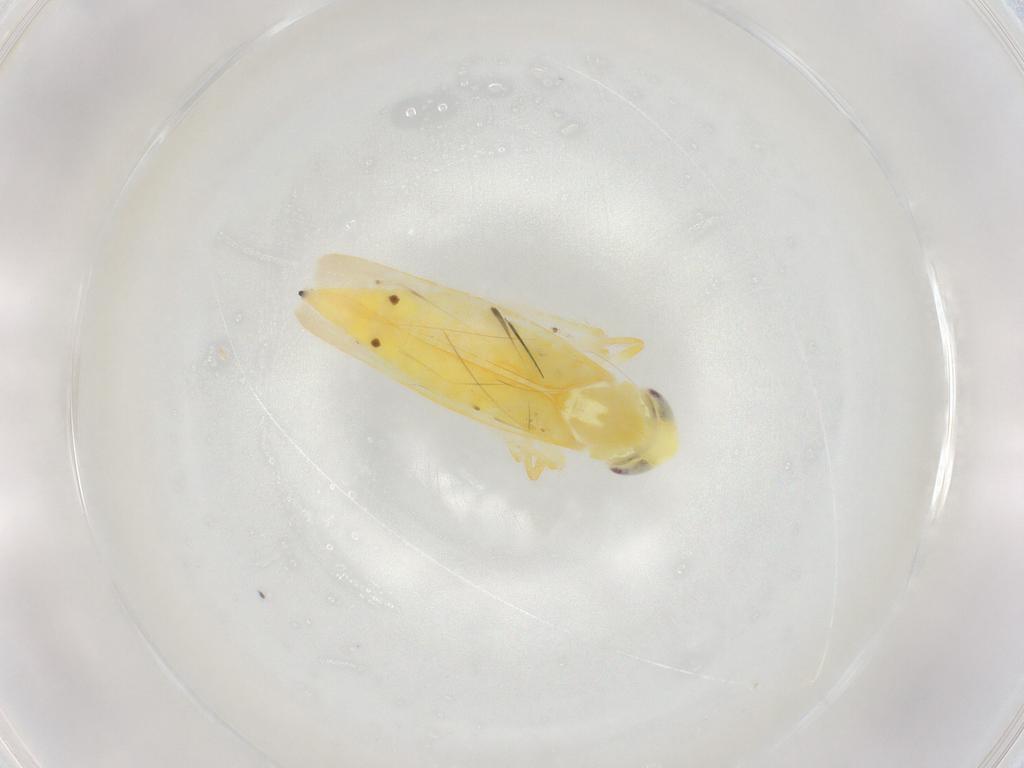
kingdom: Animalia
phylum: Arthropoda
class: Insecta
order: Hemiptera
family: Cicadellidae
